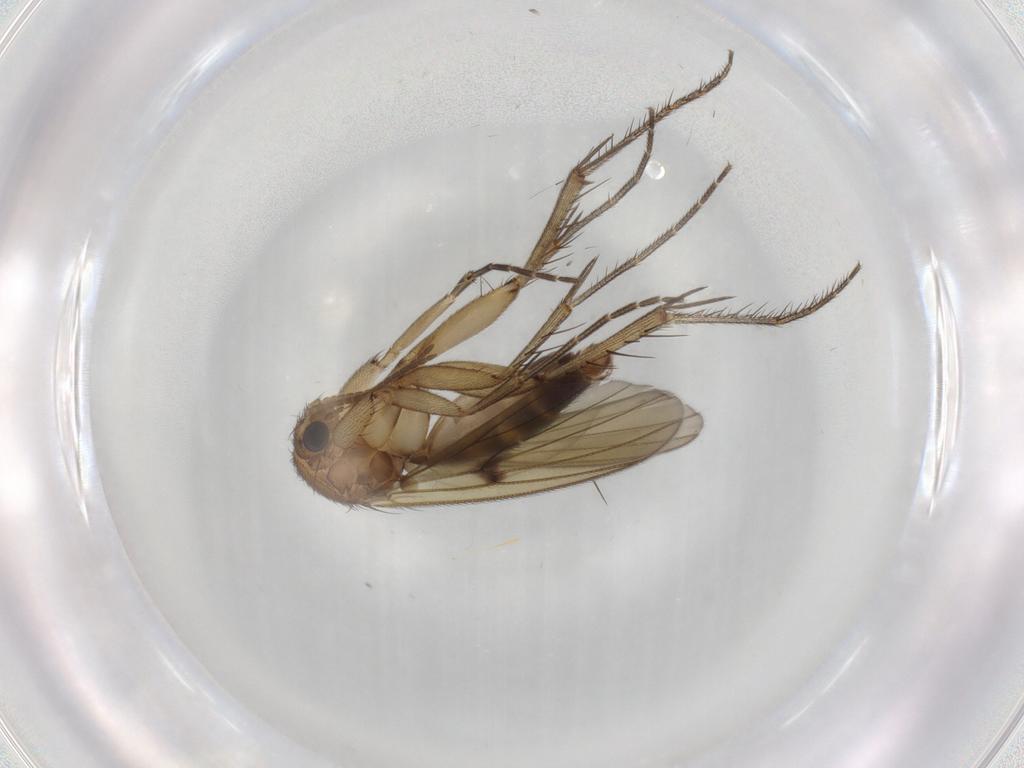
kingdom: Animalia
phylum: Arthropoda
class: Insecta
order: Diptera
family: Mycetophilidae
